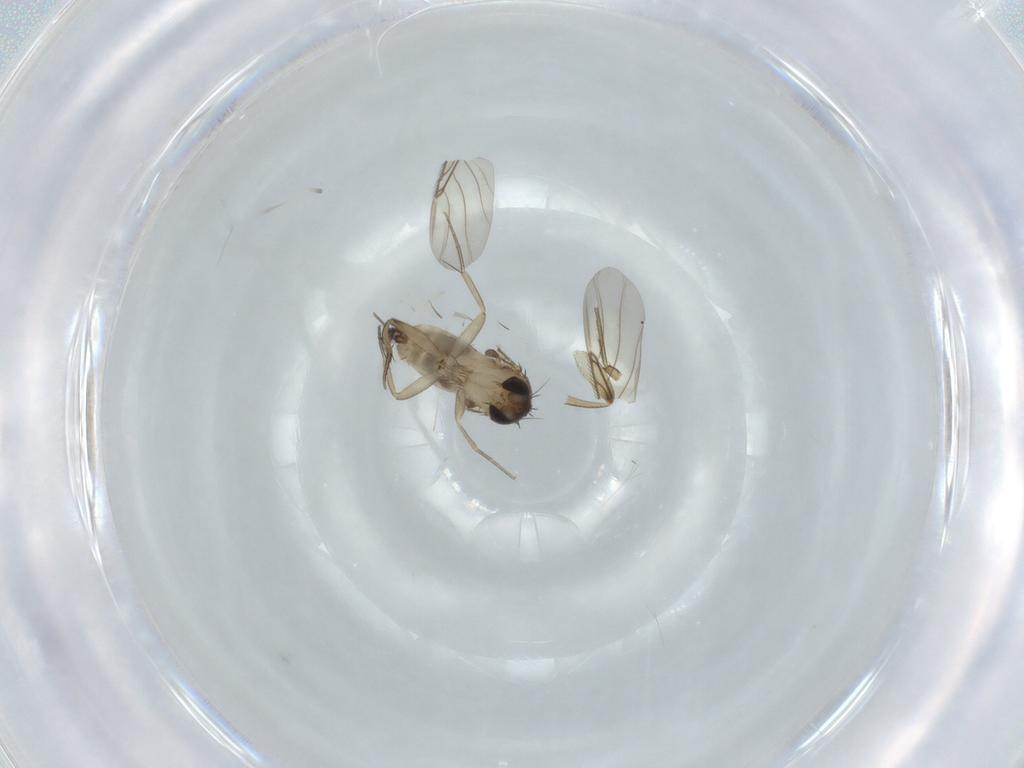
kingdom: Animalia
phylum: Arthropoda
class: Insecta
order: Diptera
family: Phoridae
